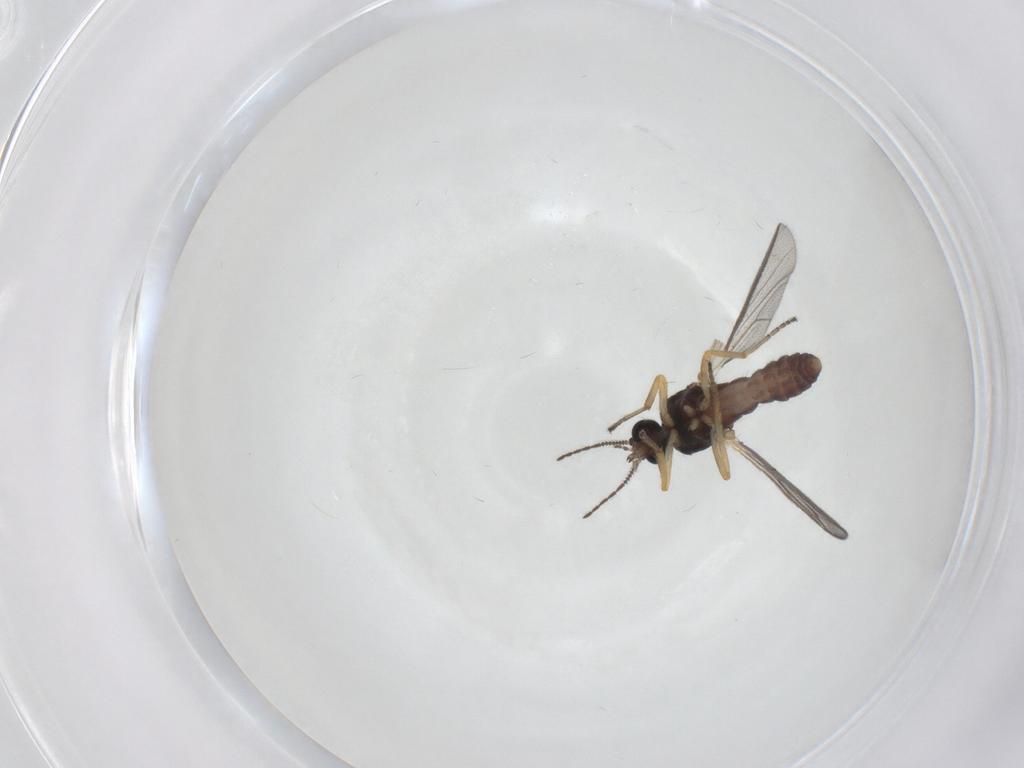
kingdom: Animalia
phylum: Arthropoda
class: Insecta
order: Diptera
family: Ceratopogonidae
